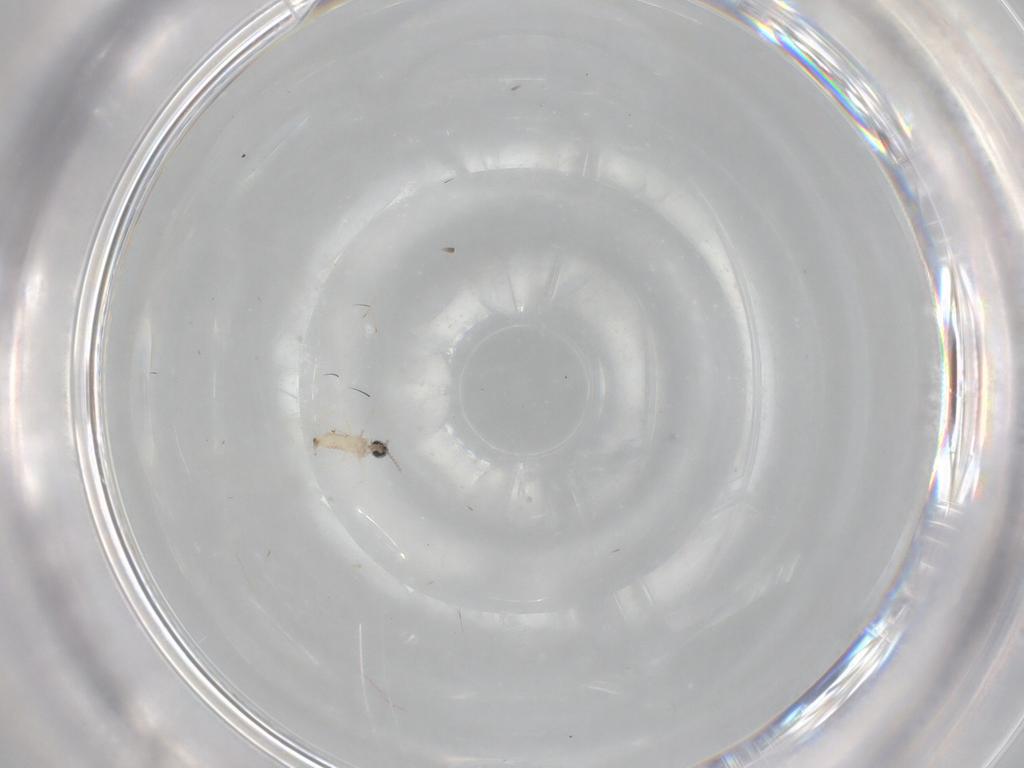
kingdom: Animalia
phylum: Arthropoda
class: Insecta
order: Diptera
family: Cecidomyiidae
